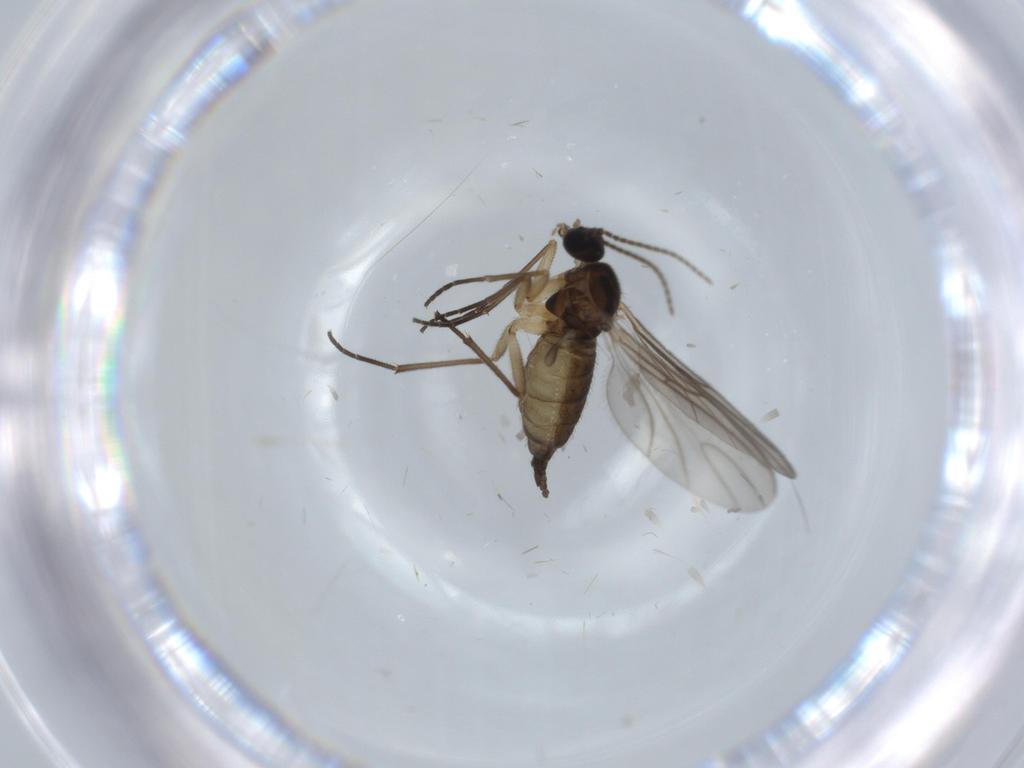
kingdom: Animalia
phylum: Arthropoda
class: Insecta
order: Diptera
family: Sciaridae
